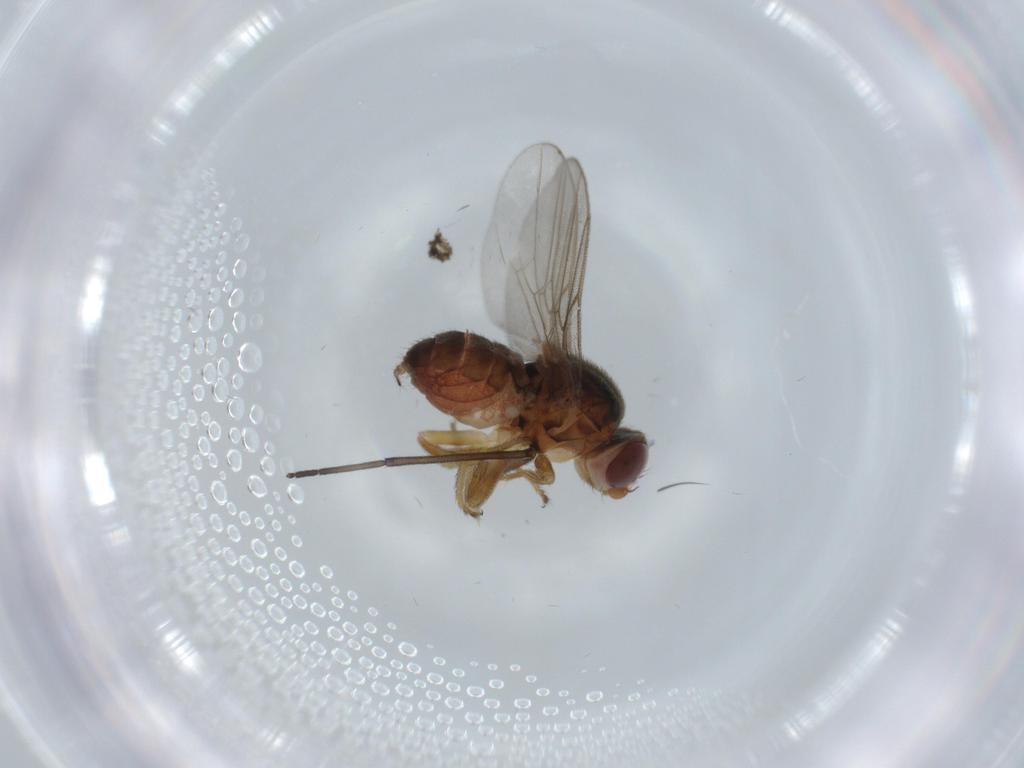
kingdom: Animalia
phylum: Arthropoda
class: Insecta
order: Diptera
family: Chloropidae
